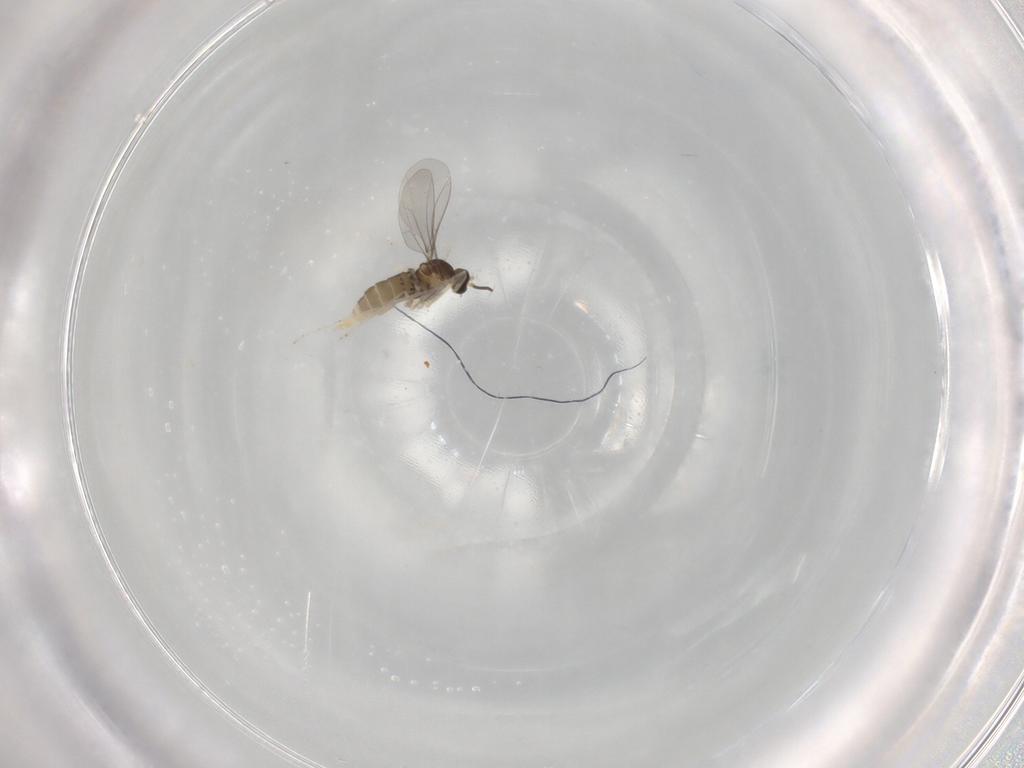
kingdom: Animalia
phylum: Arthropoda
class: Insecta
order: Diptera
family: Cecidomyiidae
